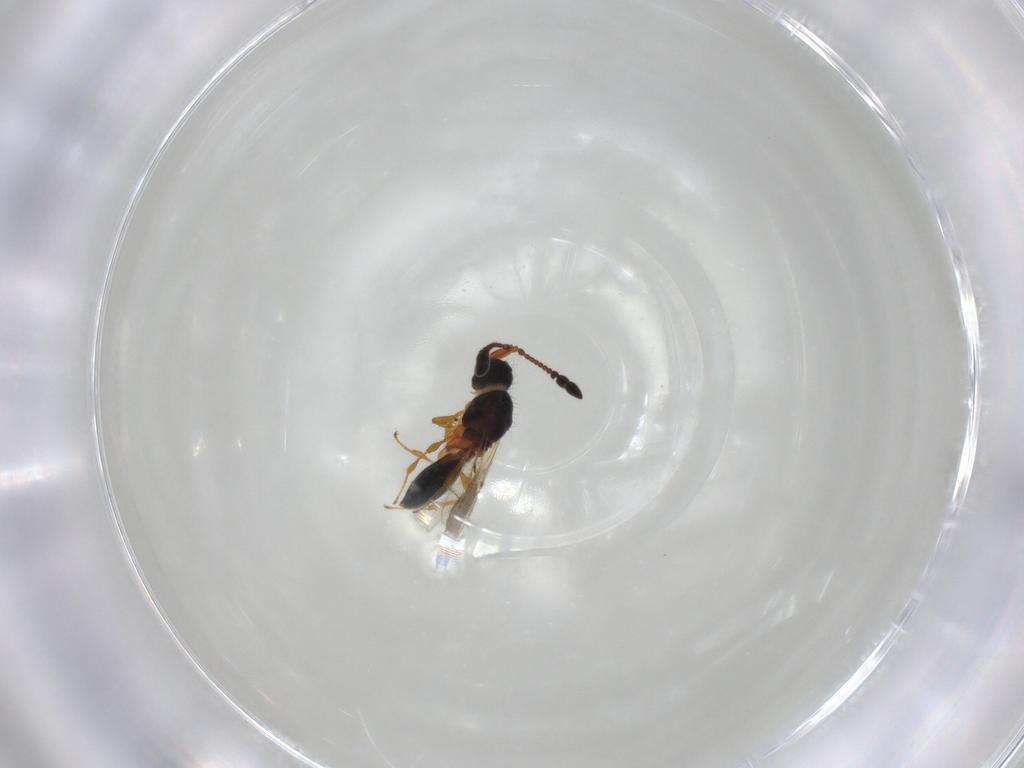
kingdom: Animalia
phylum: Arthropoda
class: Insecta
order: Hymenoptera
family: Diapriidae
